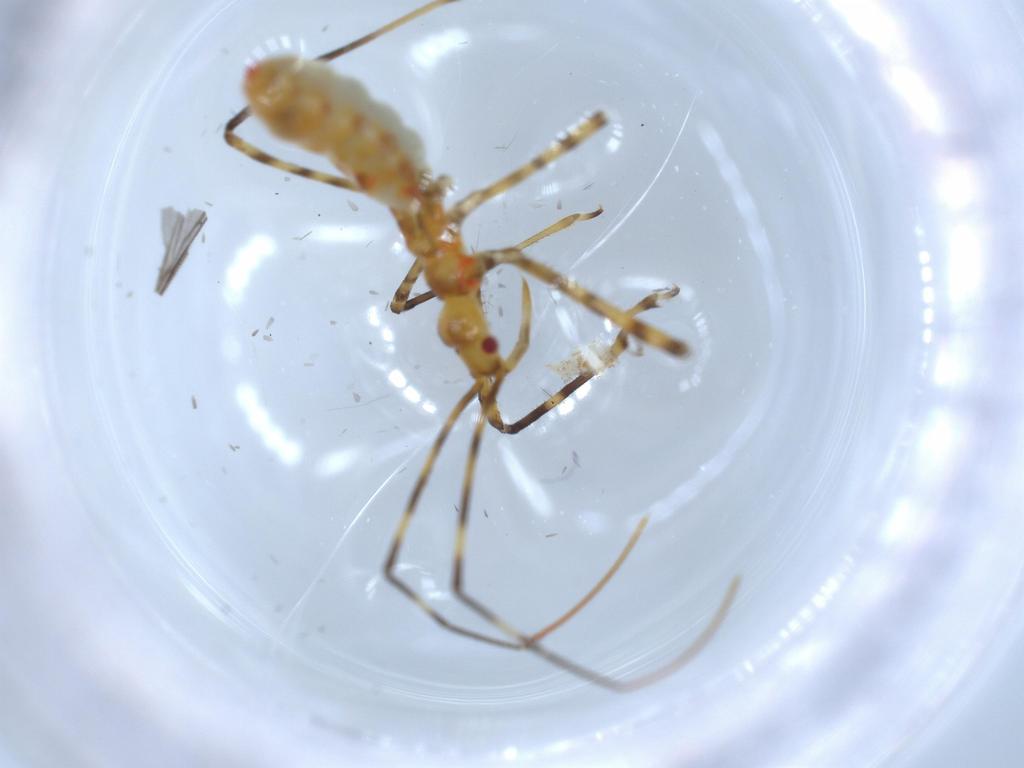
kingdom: Animalia
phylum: Arthropoda
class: Insecta
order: Hemiptera
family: Reduviidae
